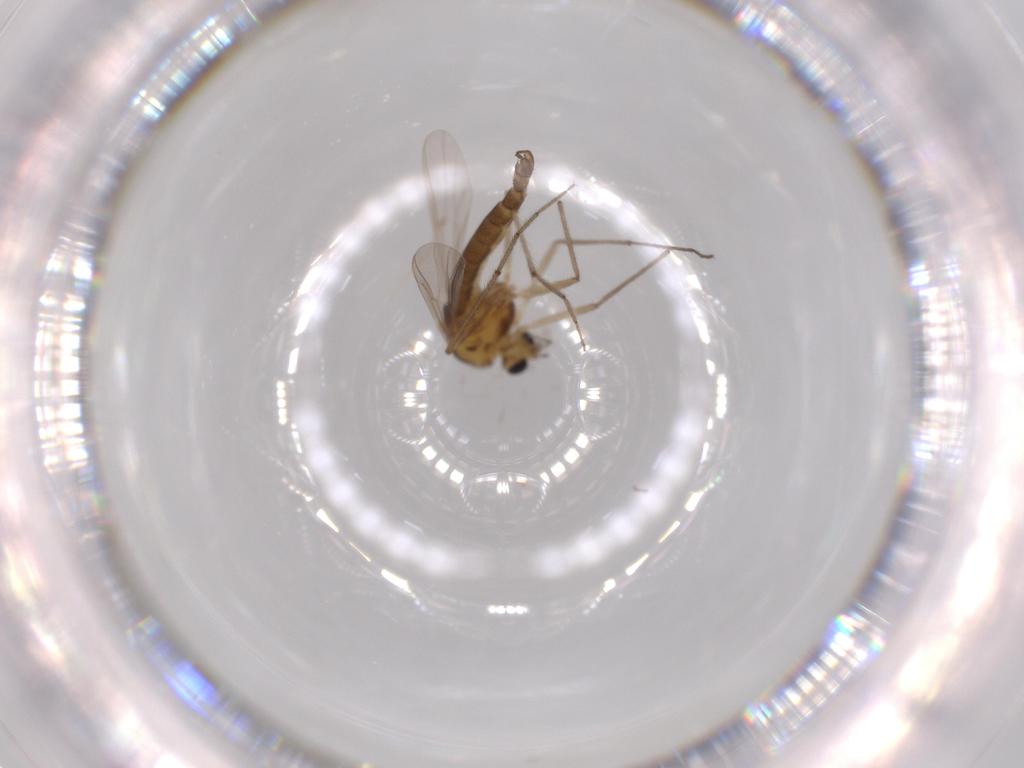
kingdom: Animalia
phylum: Arthropoda
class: Insecta
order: Diptera
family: Chironomidae
